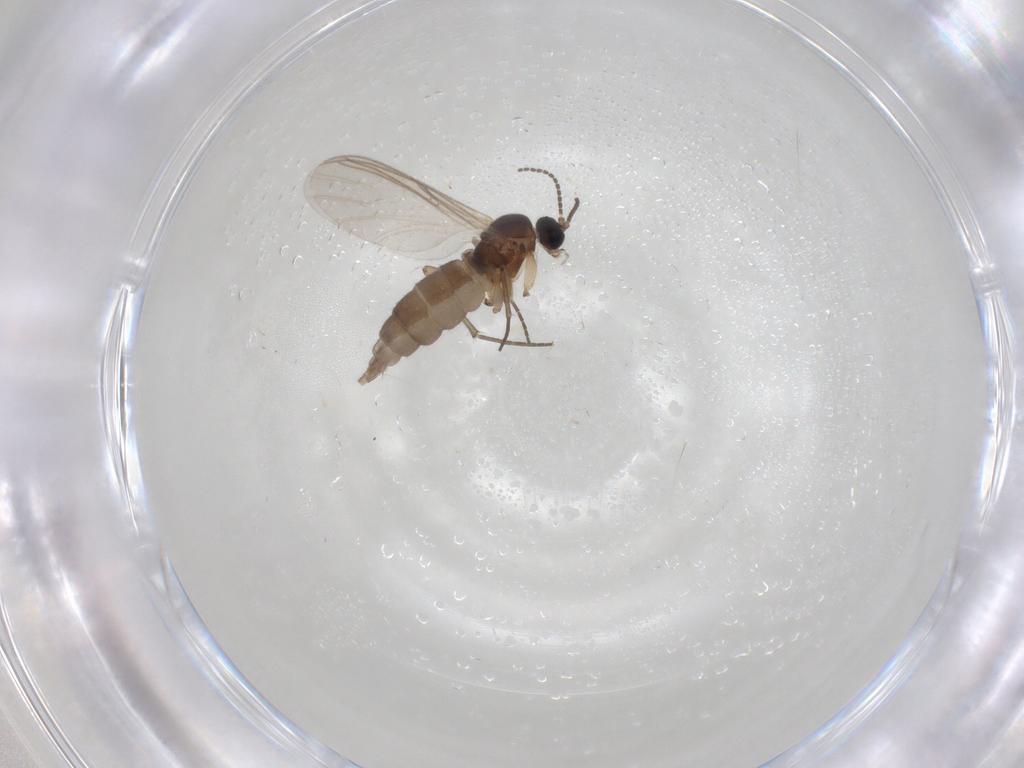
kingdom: Animalia
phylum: Arthropoda
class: Insecta
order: Diptera
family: Sciaridae
